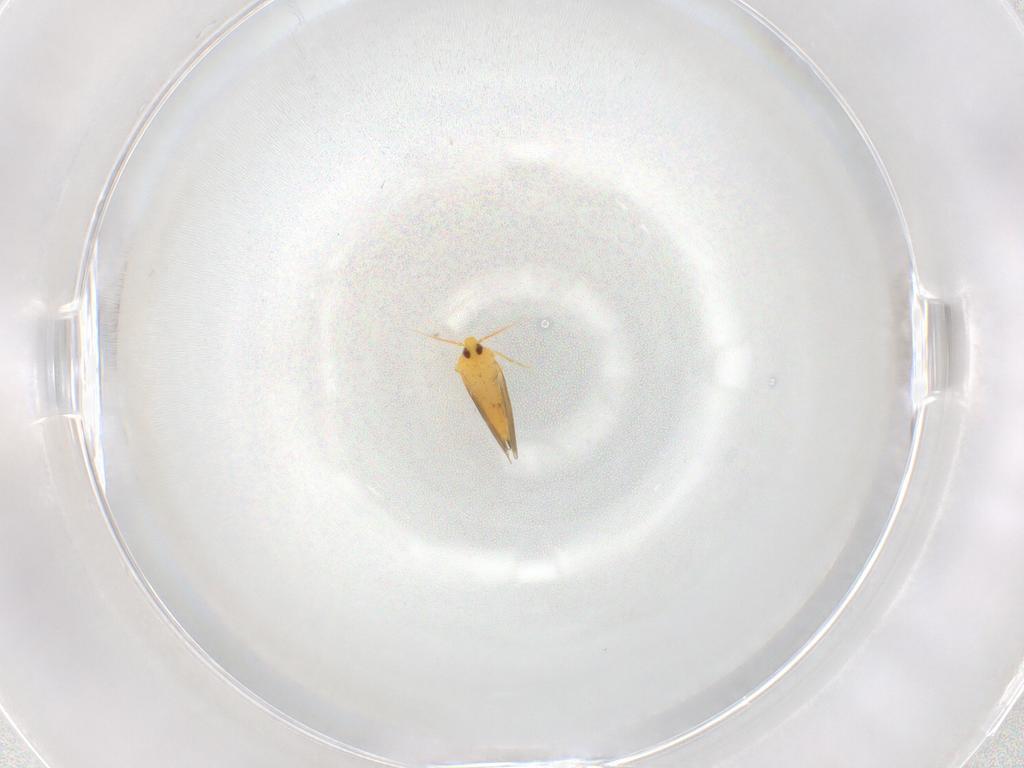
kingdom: Animalia
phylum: Arthropoda
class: Insecta
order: Hemiptera
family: Aleyrodidae
